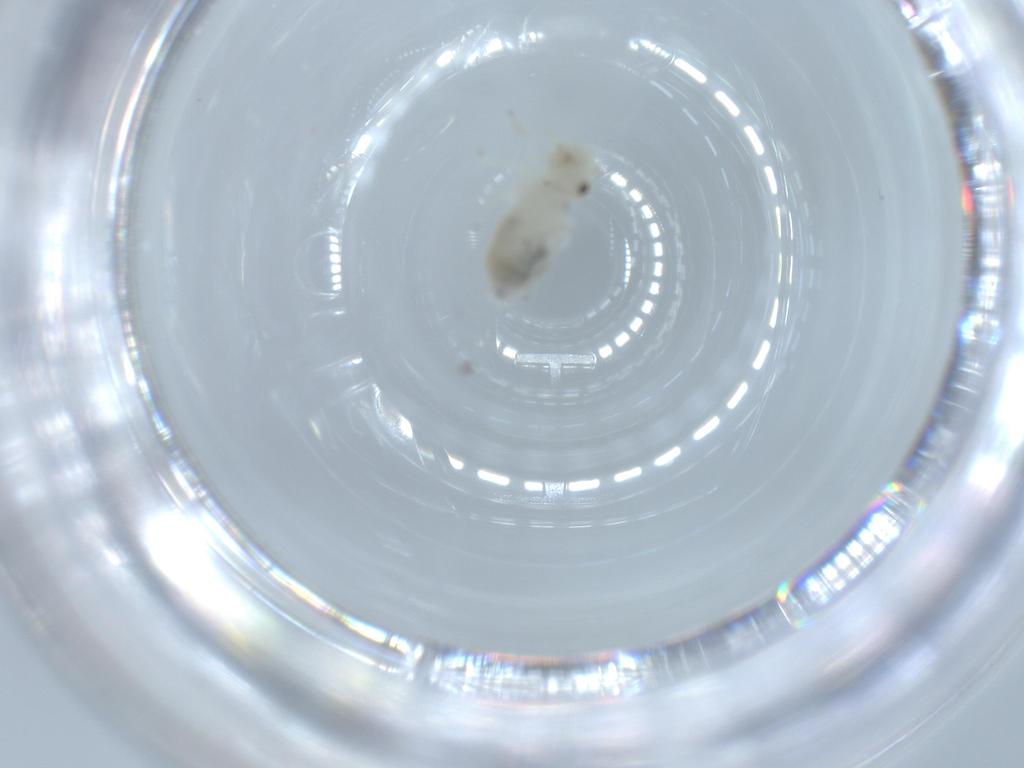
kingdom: Animalia
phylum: Arthropoda
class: Insecta
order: Psocodea
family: Caeciliusidae
